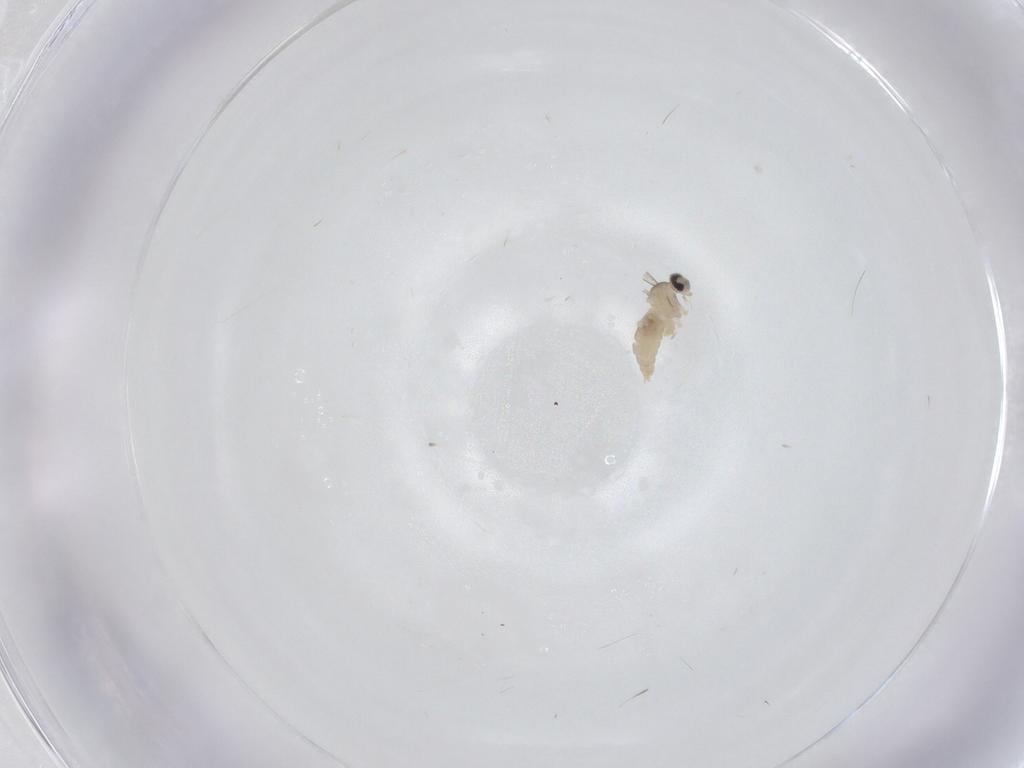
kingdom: Animalia
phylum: Arthropoda
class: Insecta
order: Diptera
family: Cecidomyiidae
